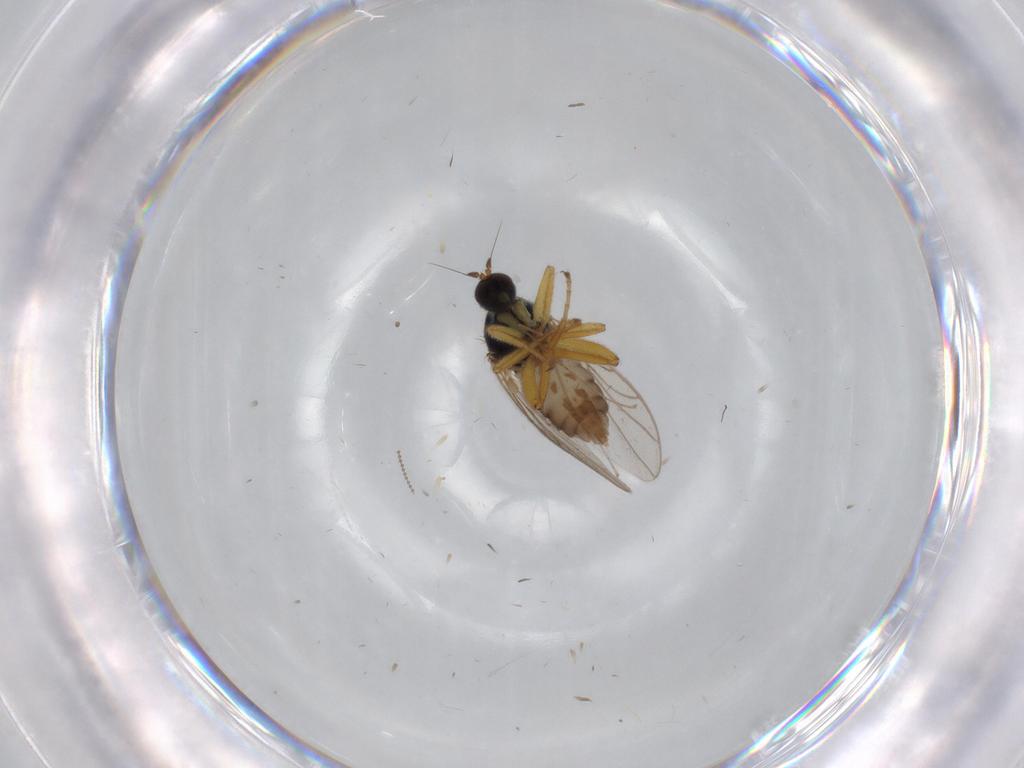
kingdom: Animalia
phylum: Arthropoda
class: Insecta
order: Diptera
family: Hybotidae
